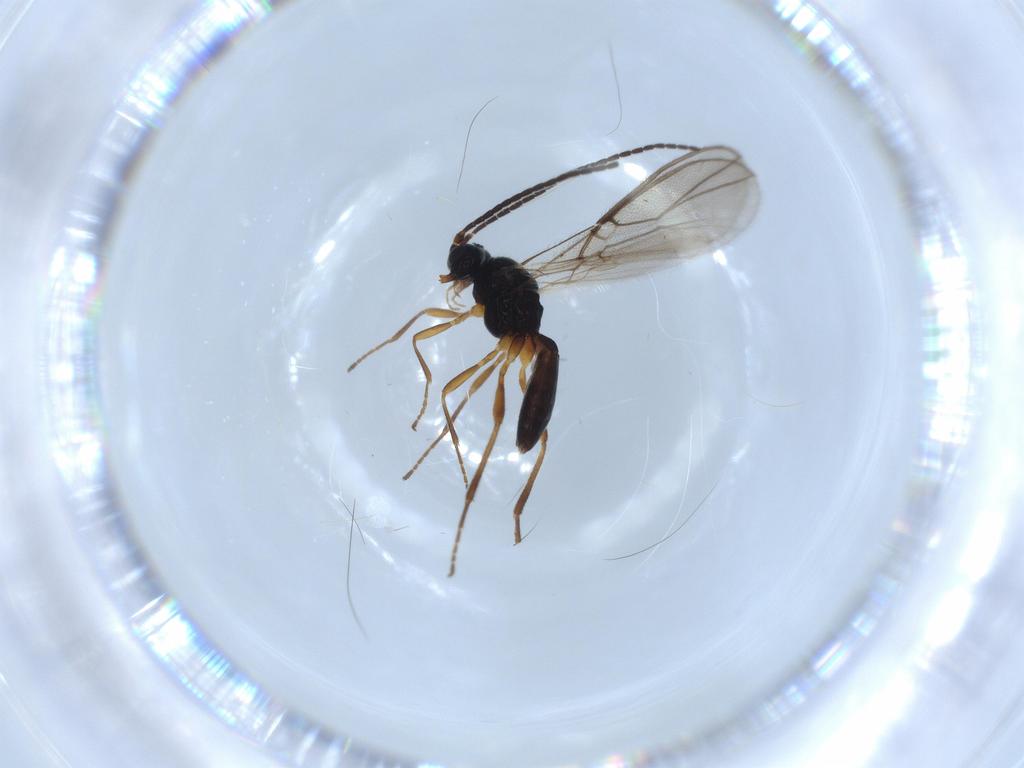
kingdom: Animalia
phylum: Arthropoda
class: Insecta
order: Hymenoptera
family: Braconidae
